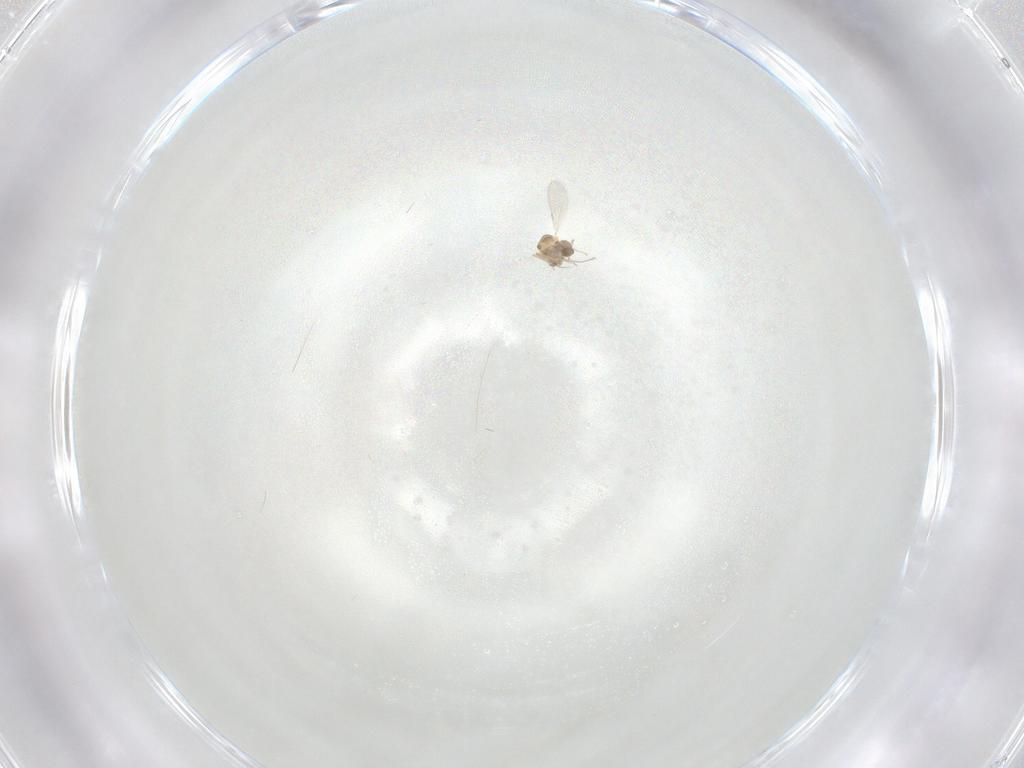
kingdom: Animalia
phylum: Arthropoda
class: Insecta
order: Diptera
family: Ceratopogonidae
